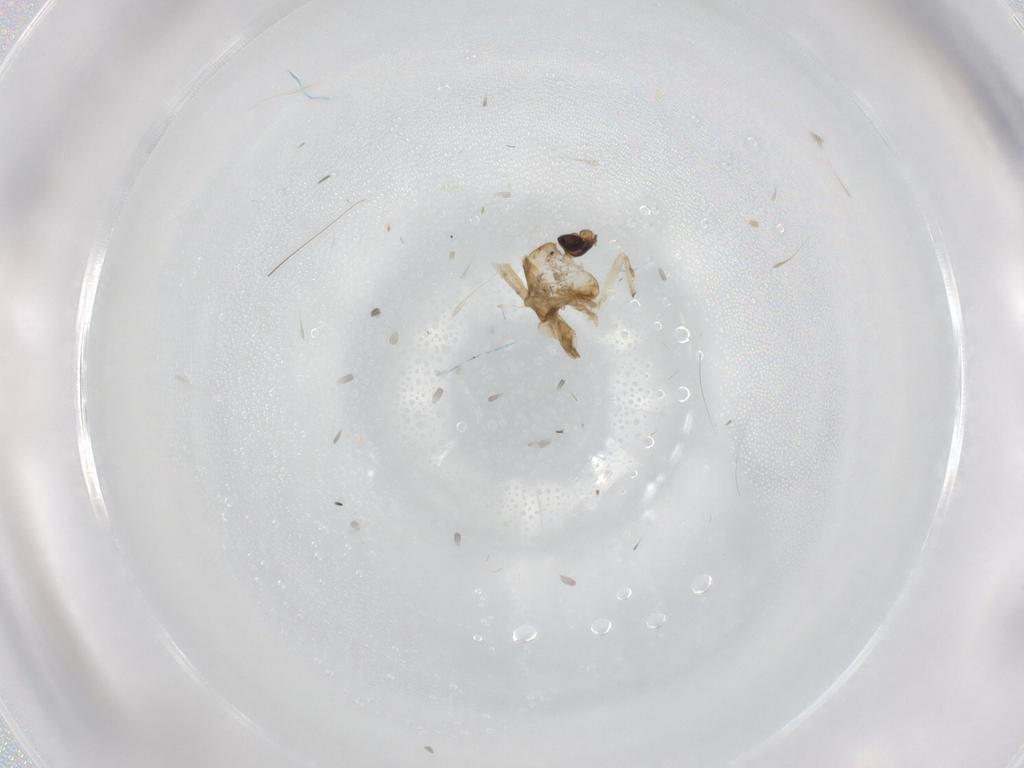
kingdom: Animalia
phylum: Arthropoda
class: Insecta
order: Diptera
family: Chironomidae
